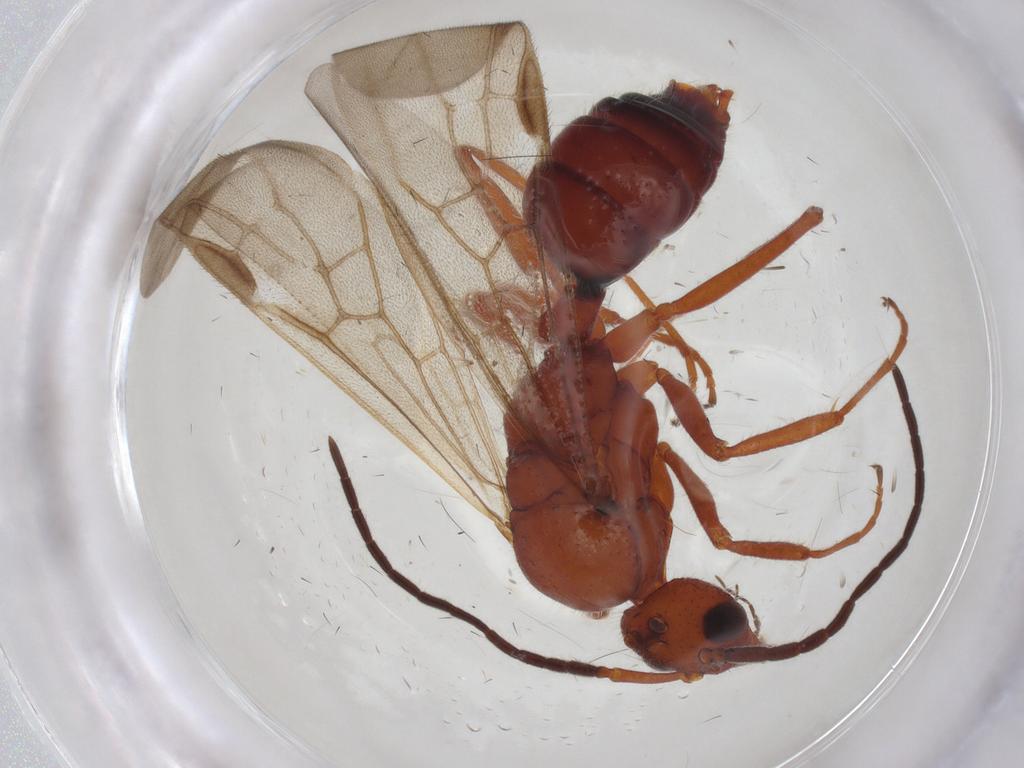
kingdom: Animalia
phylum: Arthropoda
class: Insecta
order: Hymenoptera
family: Formicidae
